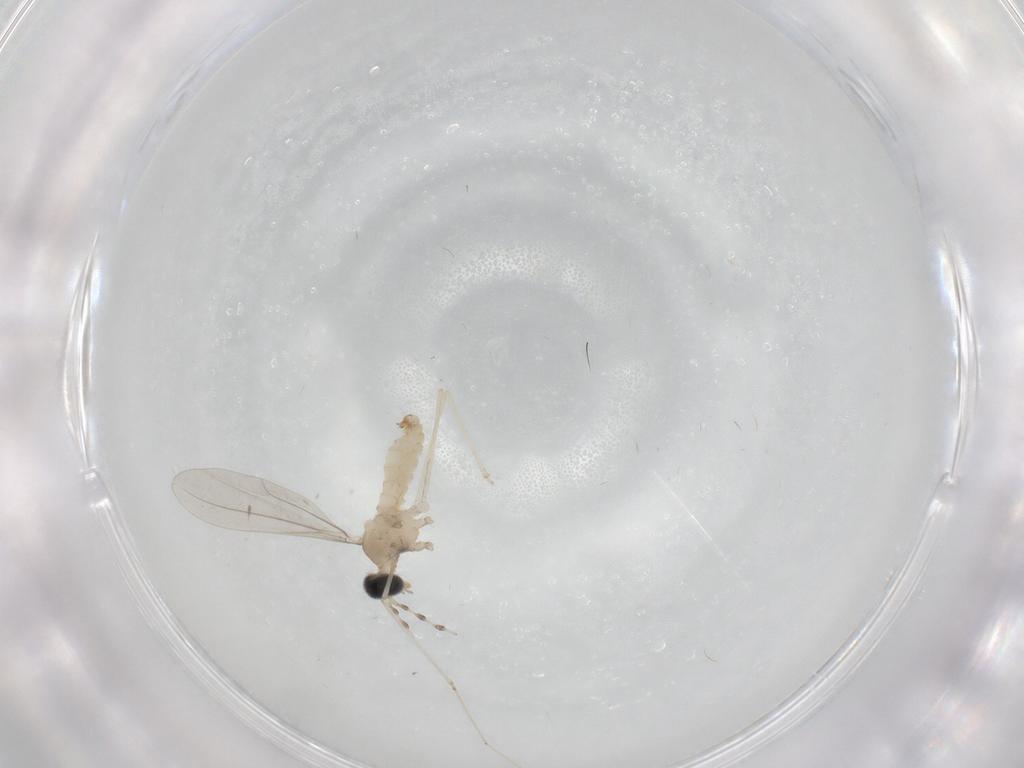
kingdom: Animalia
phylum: Arthropoda
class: Insecta
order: Diptera
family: Cecidomyiidae
